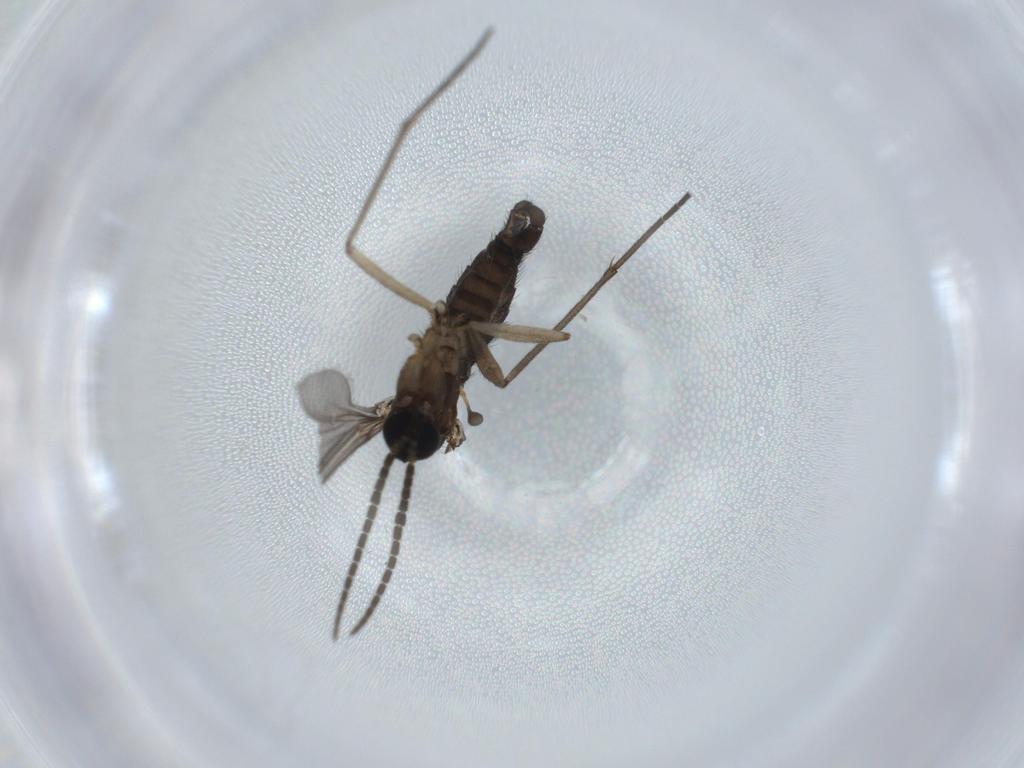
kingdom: Animalia
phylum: Arthropoda
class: Insecta
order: Diptera
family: Sciaridae
